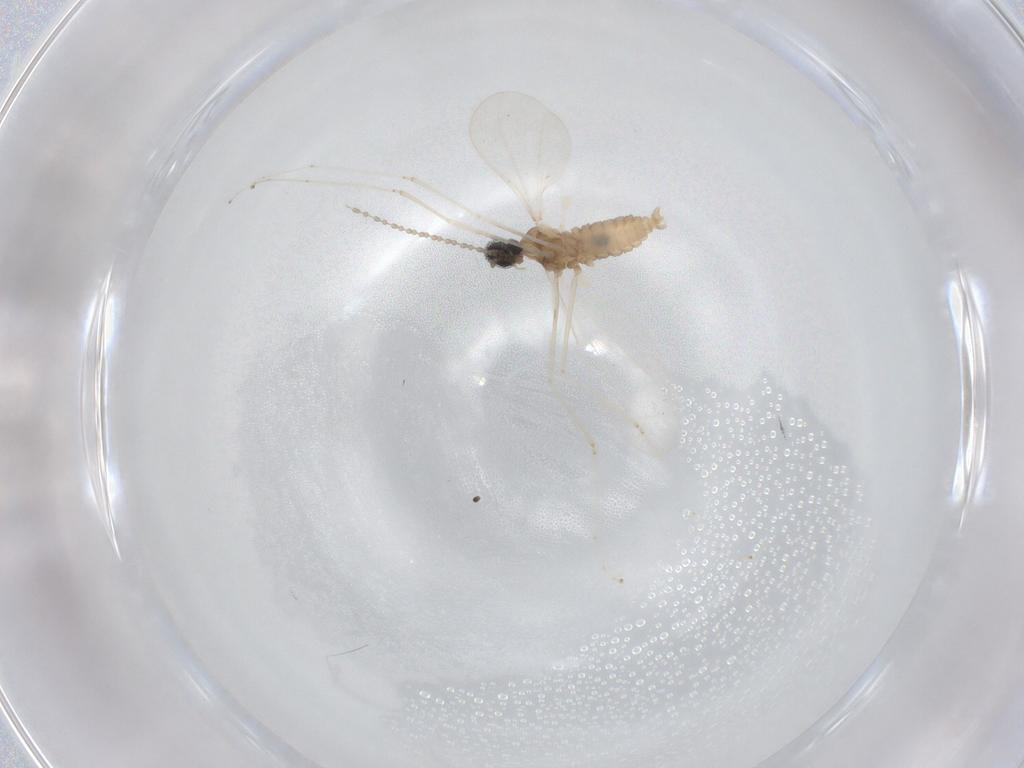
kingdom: Animalia
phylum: Arthropoda
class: Insecta
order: Diptera
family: Cecidomyiidae
